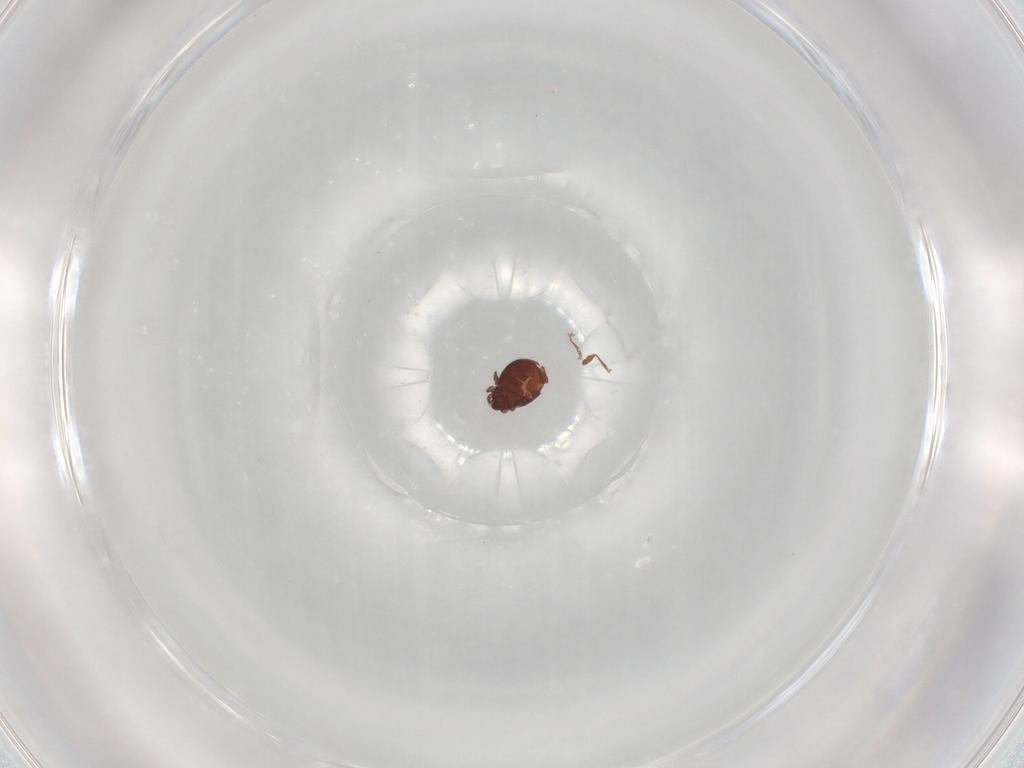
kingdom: Animalia
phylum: Arthropoda
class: Arachnida
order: Sarcoptiformes
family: Scheloribatidae
